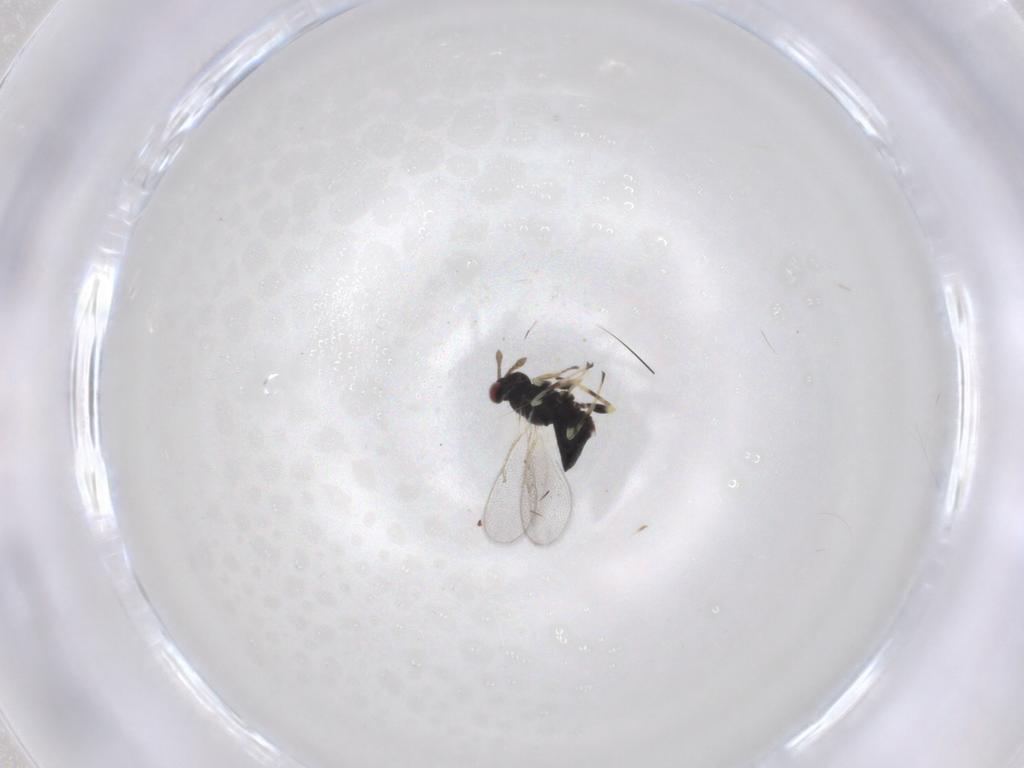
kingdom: Animalia
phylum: Arthropoda
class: Insecta
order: Hymenoptera
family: Eulophidae
